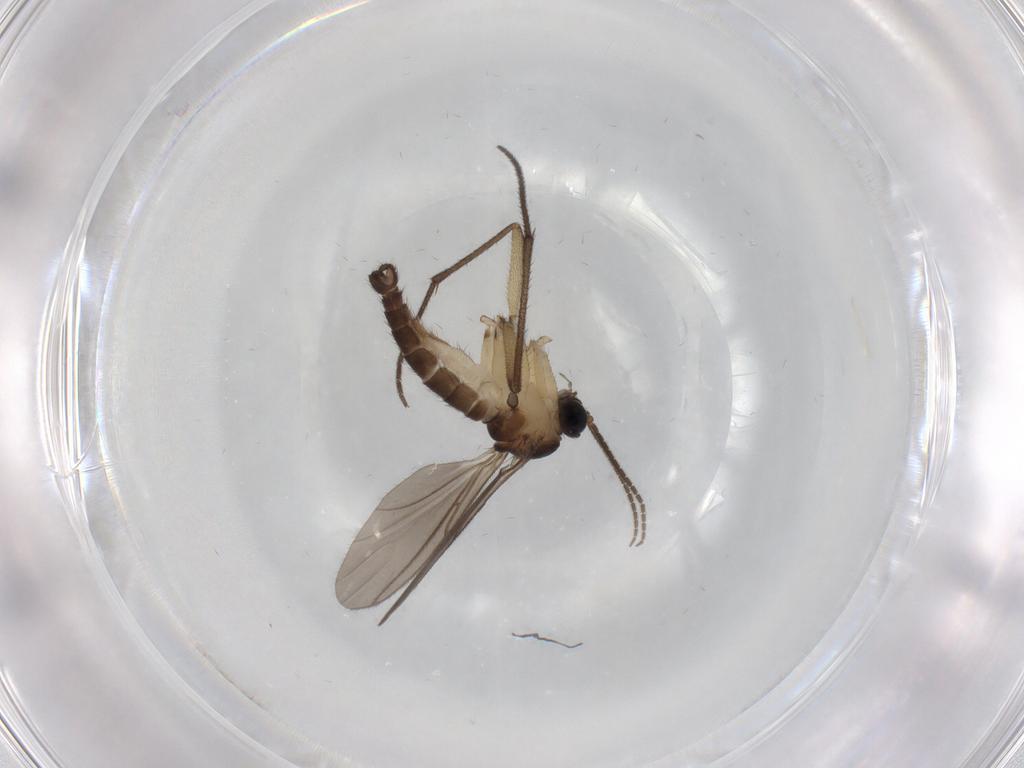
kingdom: Animalia
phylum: Arthropoda
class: Insecta
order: Diptera
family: Sciaridae
